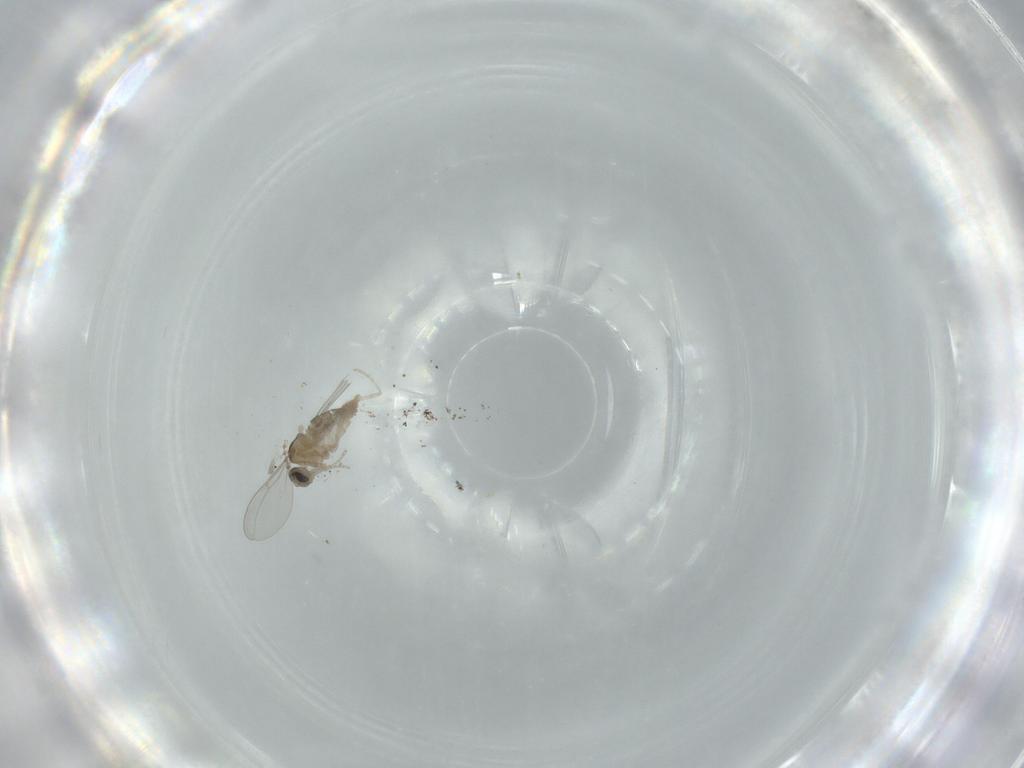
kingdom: Animalia
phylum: Arthropoda
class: Insecta
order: Diptera
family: Cecidomyiidae
